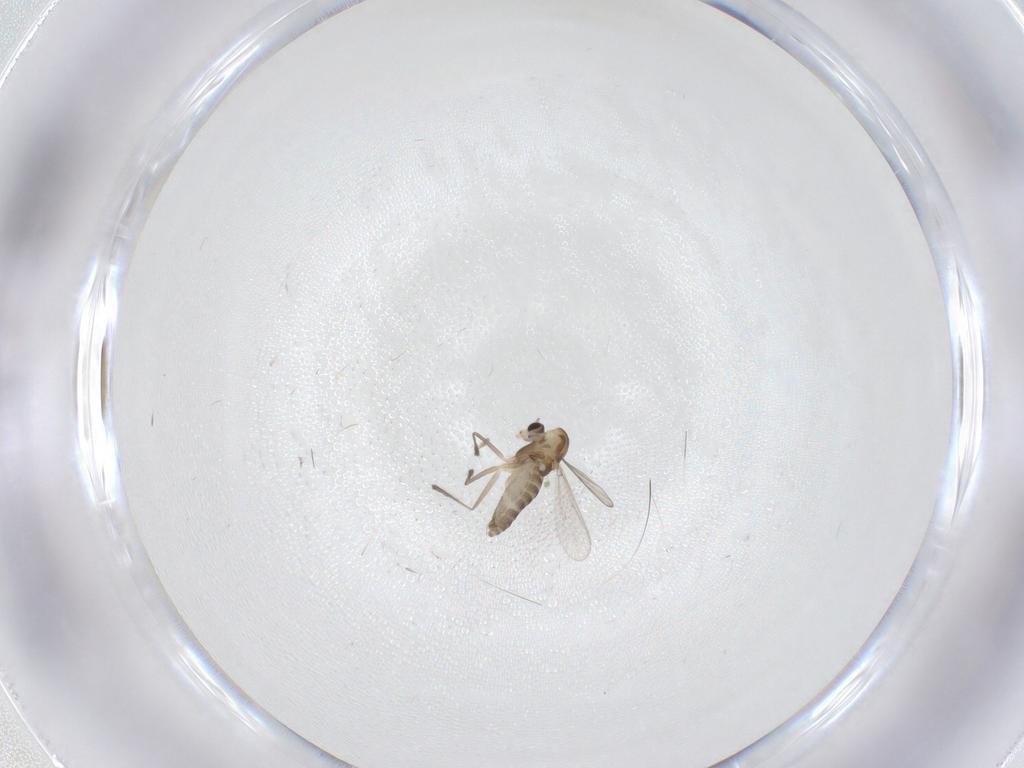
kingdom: Animalia
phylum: Arthropoda
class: Insecta
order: Diptera
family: Chironomidae
